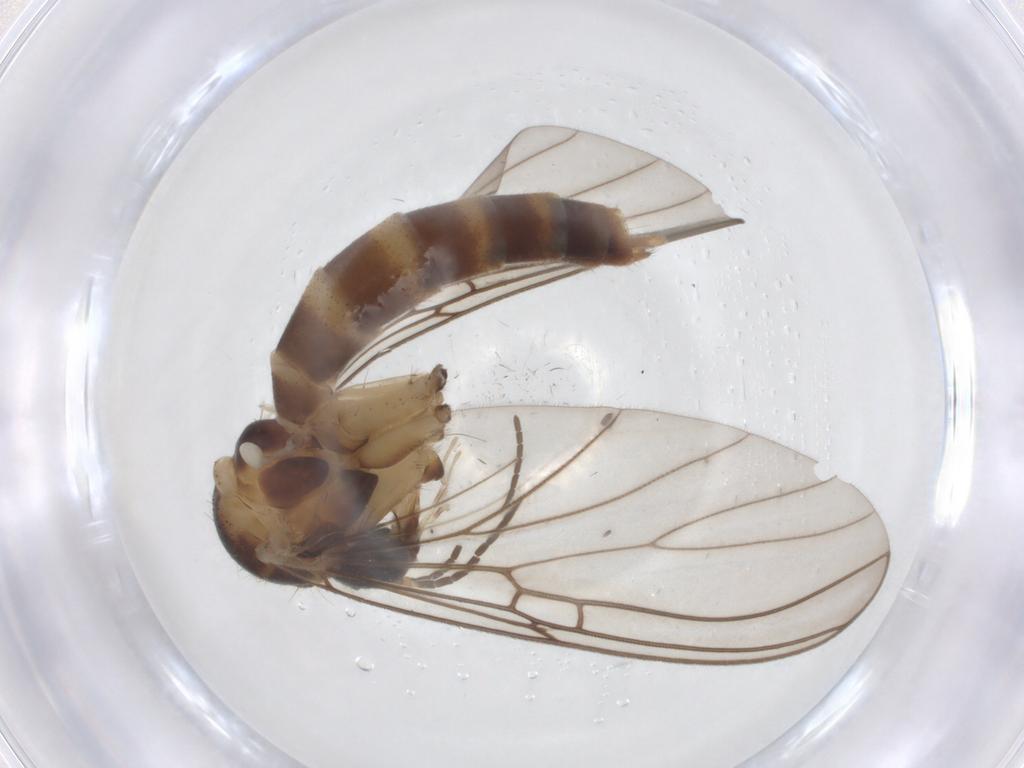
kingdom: Animalia
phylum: Arthropoda
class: Insecta
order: Diptera
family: Mycetophilidae
